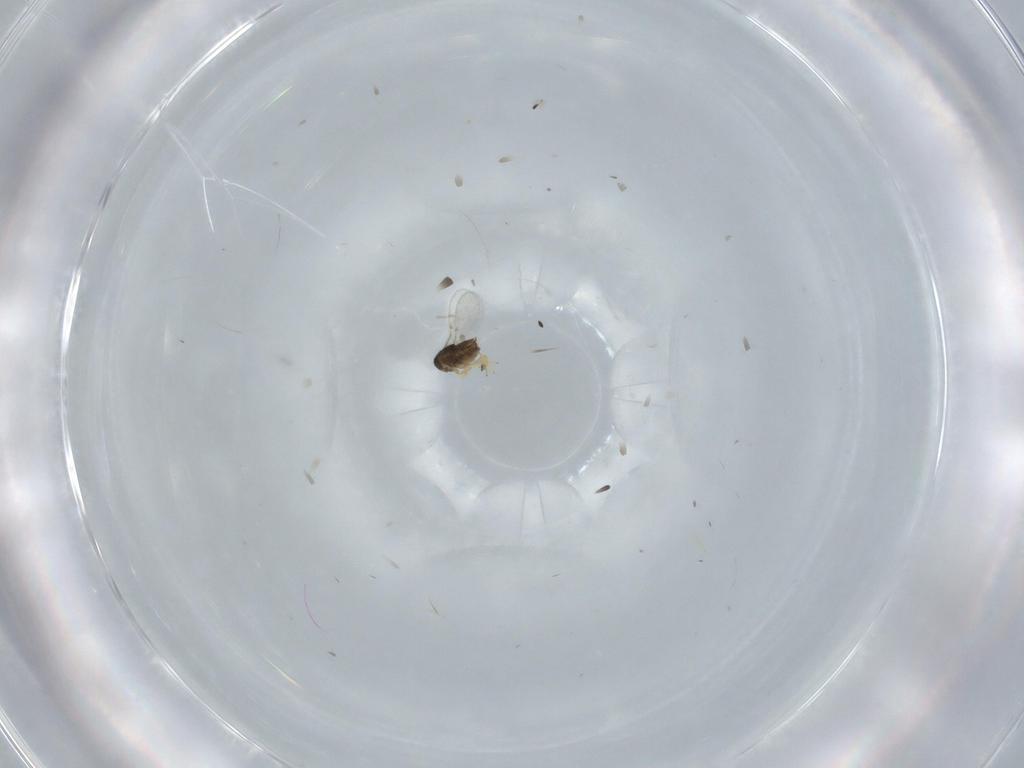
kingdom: Animalia
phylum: Arthropoda
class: Insecta
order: Hymenoptera
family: Encyrtidae
